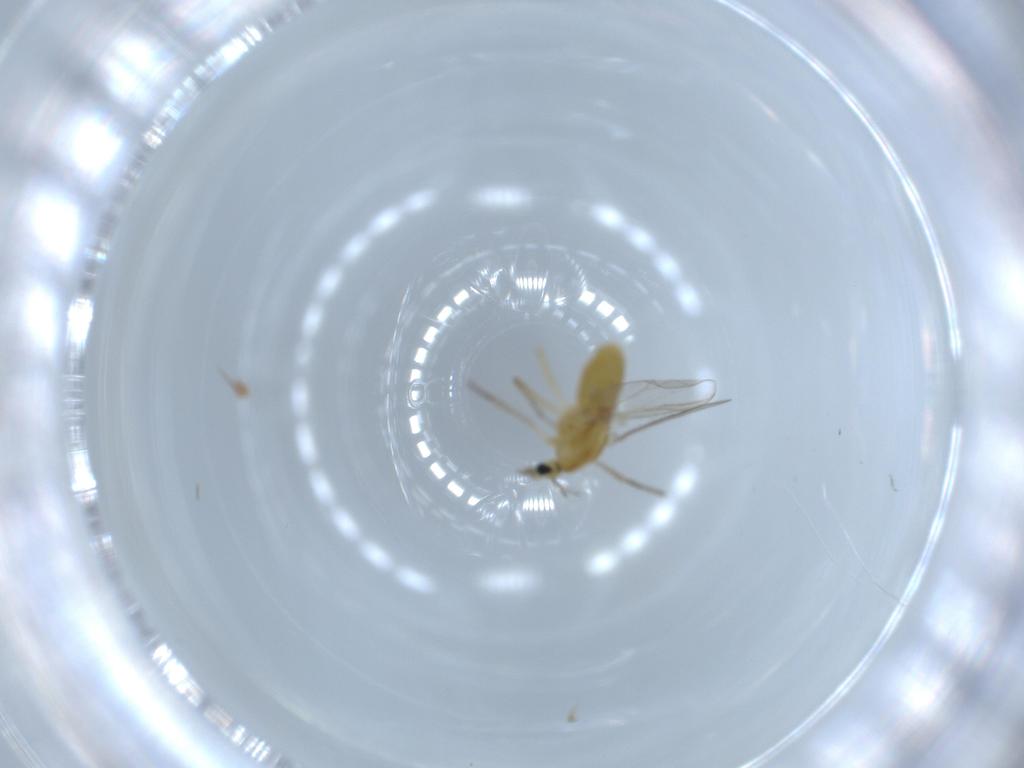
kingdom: Animalia
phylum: Arthropoda
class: Insecta
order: Diptera
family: Chironomidae
